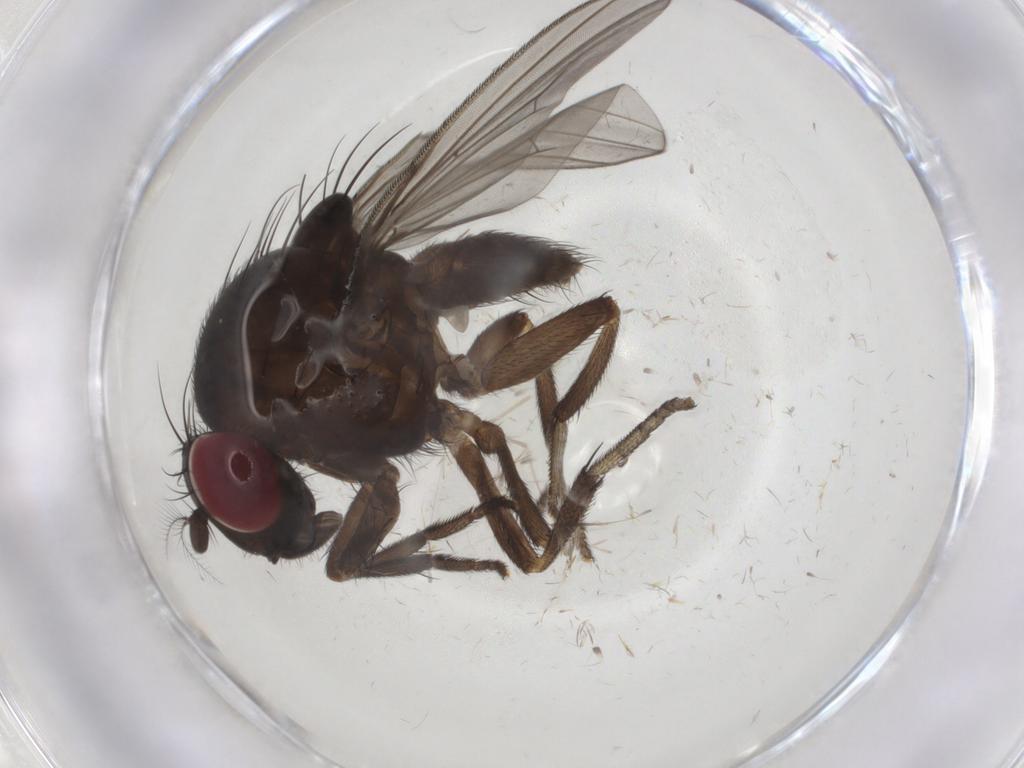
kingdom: Animalia
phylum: Arthropoda
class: Insecta
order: Diptera
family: Lauxaniidae
